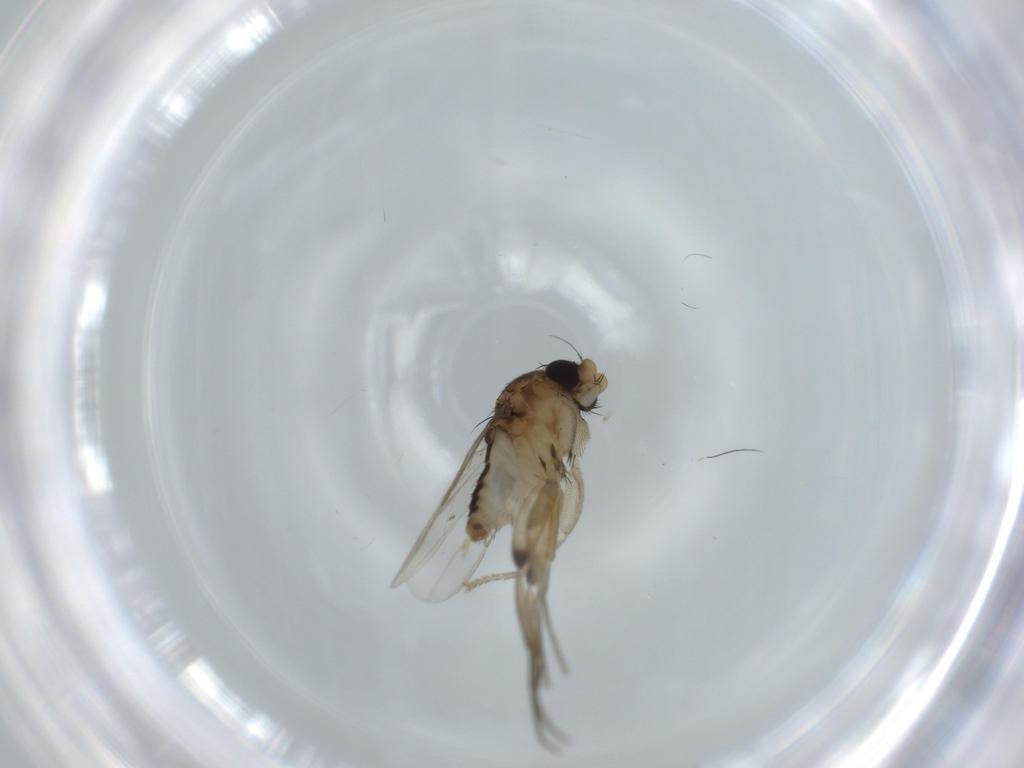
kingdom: Animalia
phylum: Arthropoda
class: Insecta
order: Diptera
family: Phoridae
